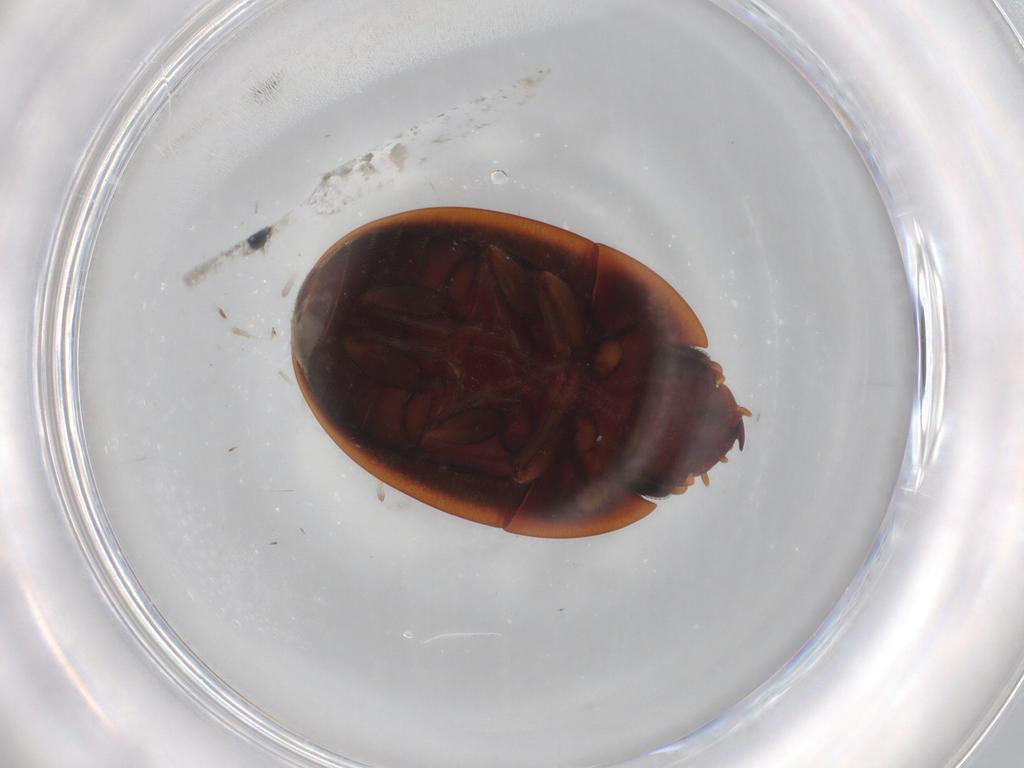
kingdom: Animalia
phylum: Arthropoda
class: Insecta
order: Coleoptera
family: Nitidulidae
